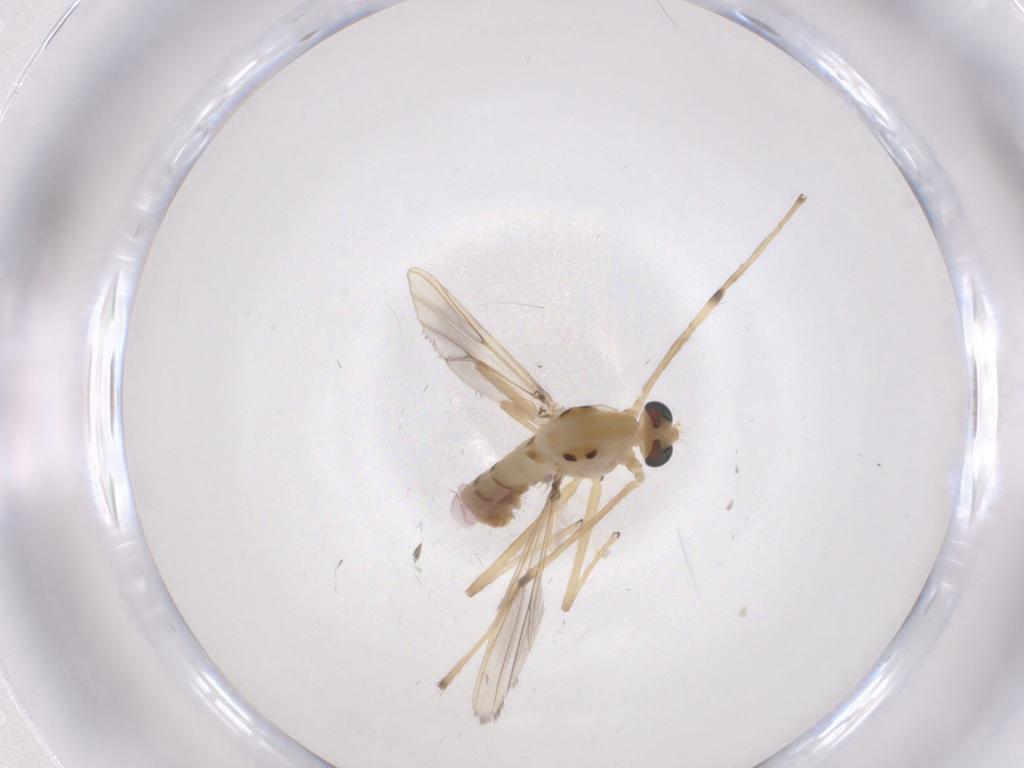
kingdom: Animalia
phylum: Arthropoda
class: Insecta
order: Diptera
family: Chironomidae
